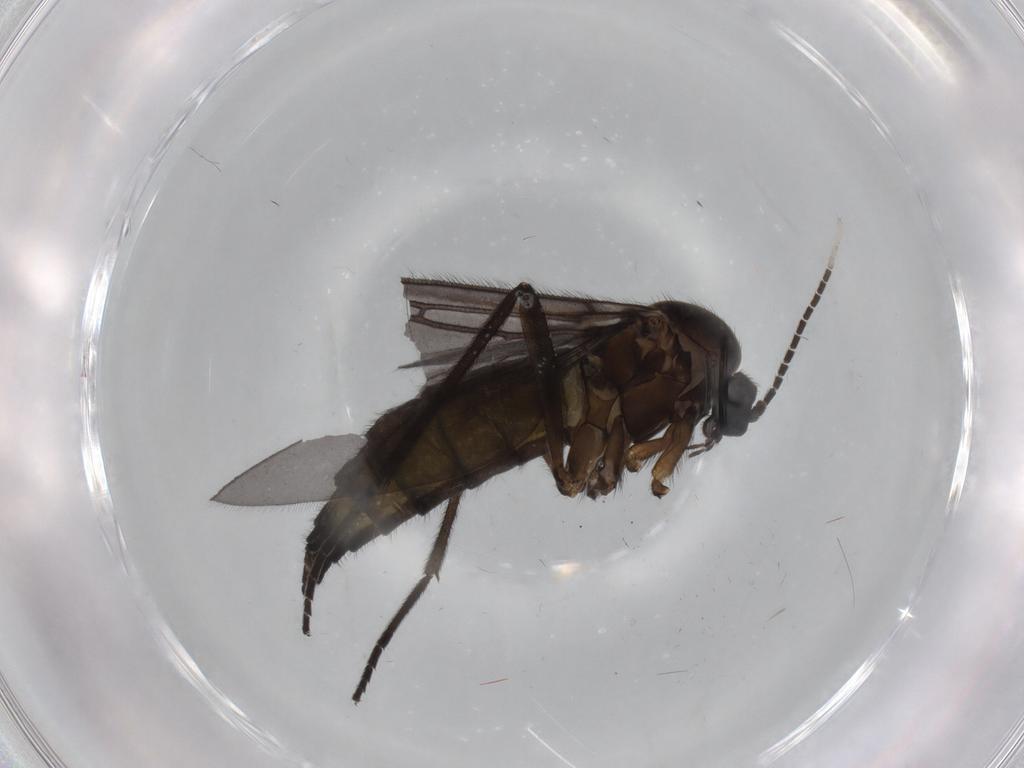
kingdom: Animalia
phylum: Arthropoda
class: Insecta
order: Diptera
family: Sciaridae
